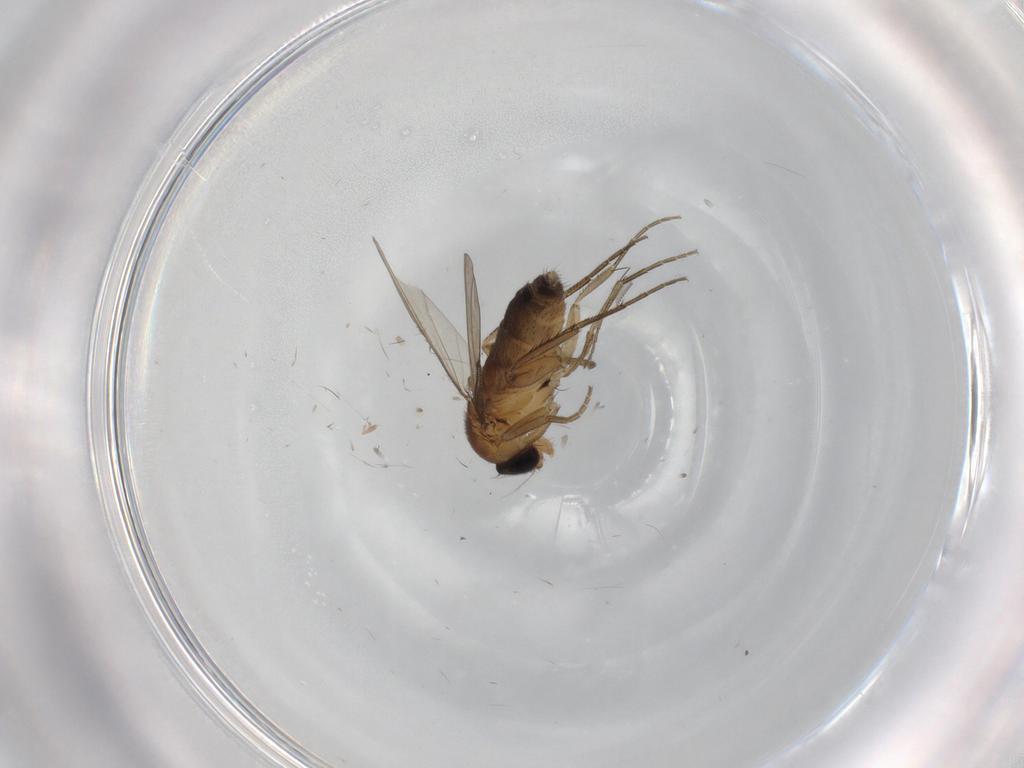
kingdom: Animalia
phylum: Arthropoda
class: Insecta
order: Diptera
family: Phoridae
